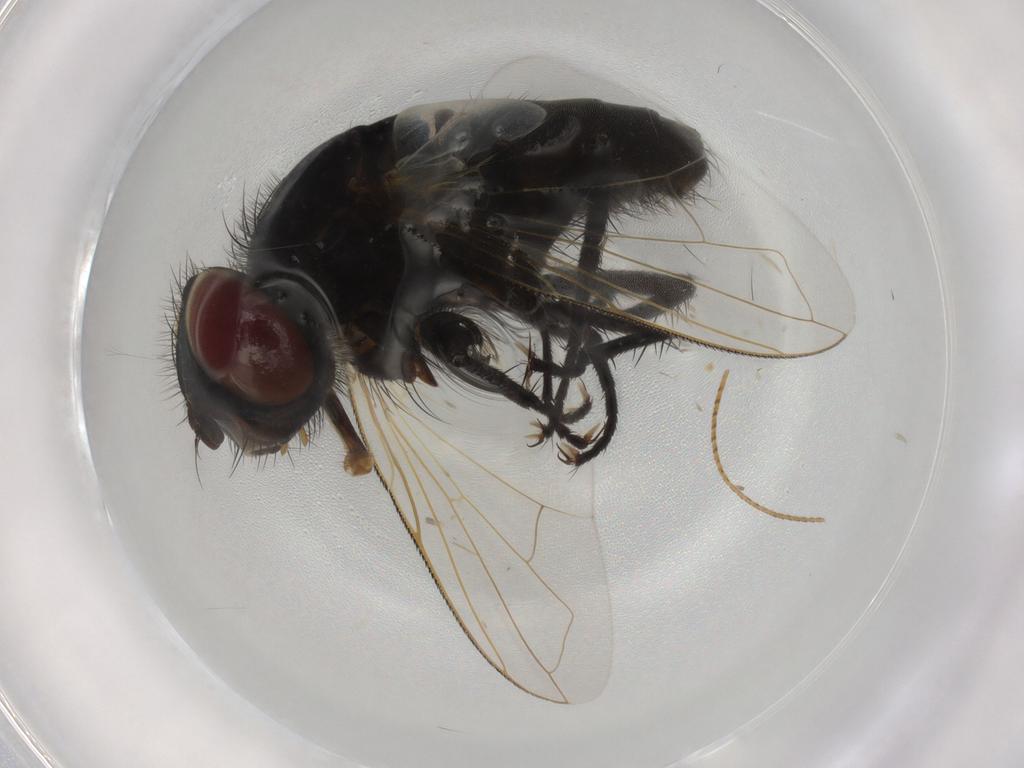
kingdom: Animalia
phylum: Arthropoda
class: Insecta
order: Diptera
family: Tachinidae
